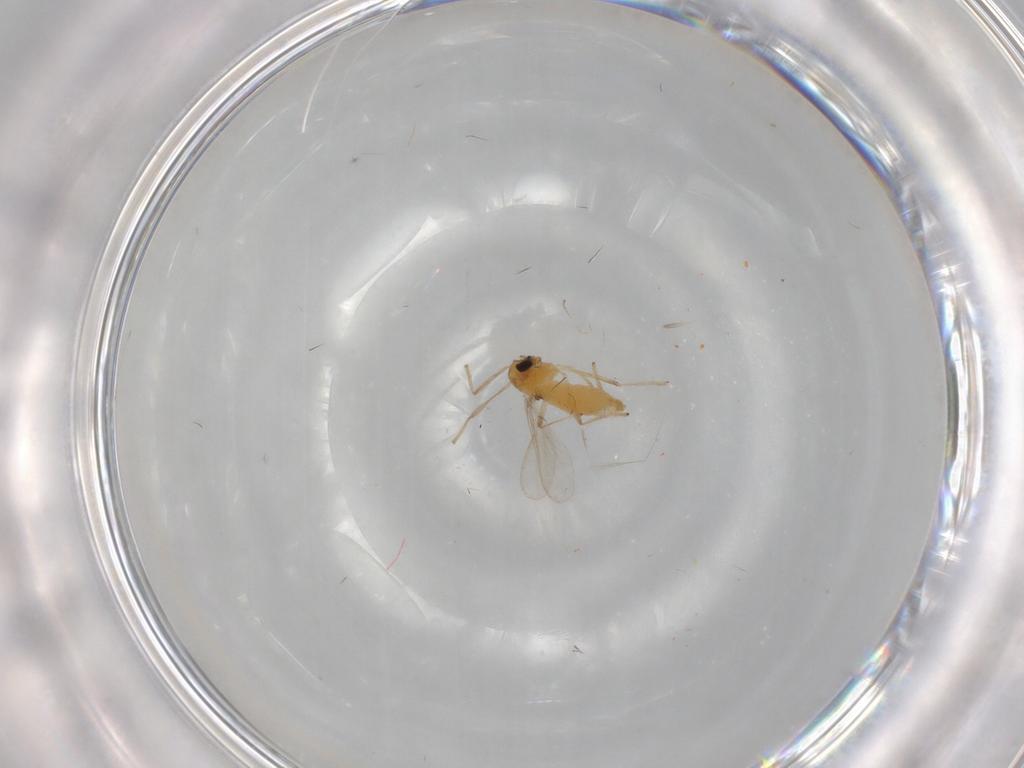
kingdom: Animalia
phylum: Arthropoda
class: Insecta
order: Diptera
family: Chironomidae
